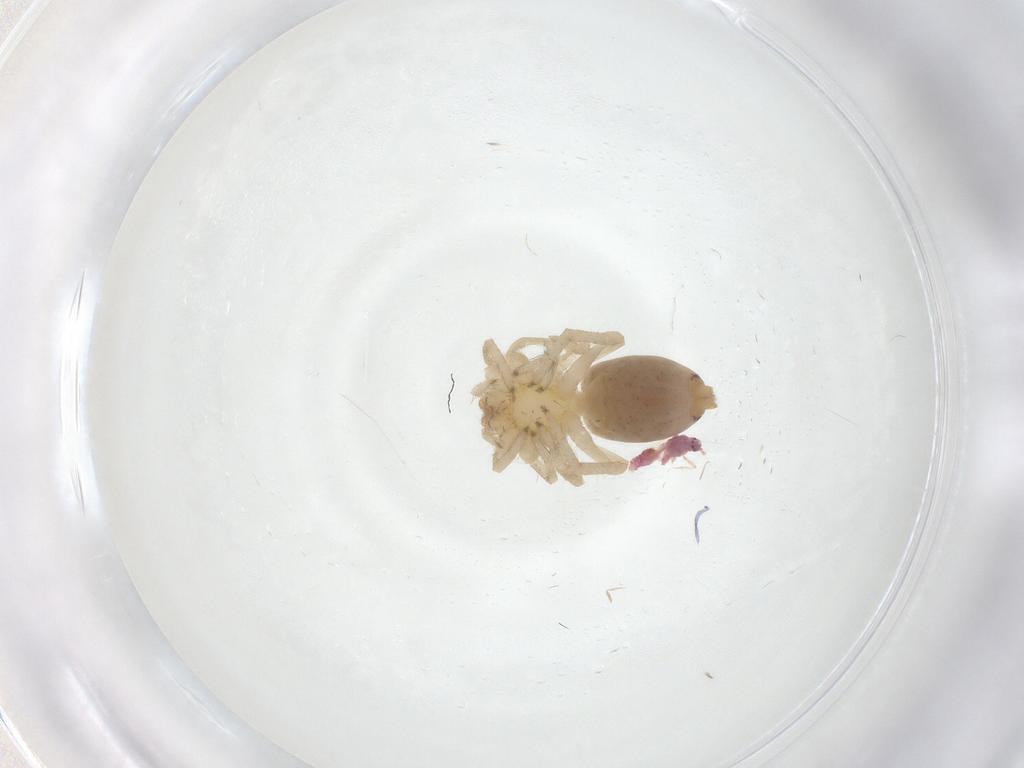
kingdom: Animalia
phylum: Arthropoda
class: Arachnida
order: Araneae
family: Clubionidae
